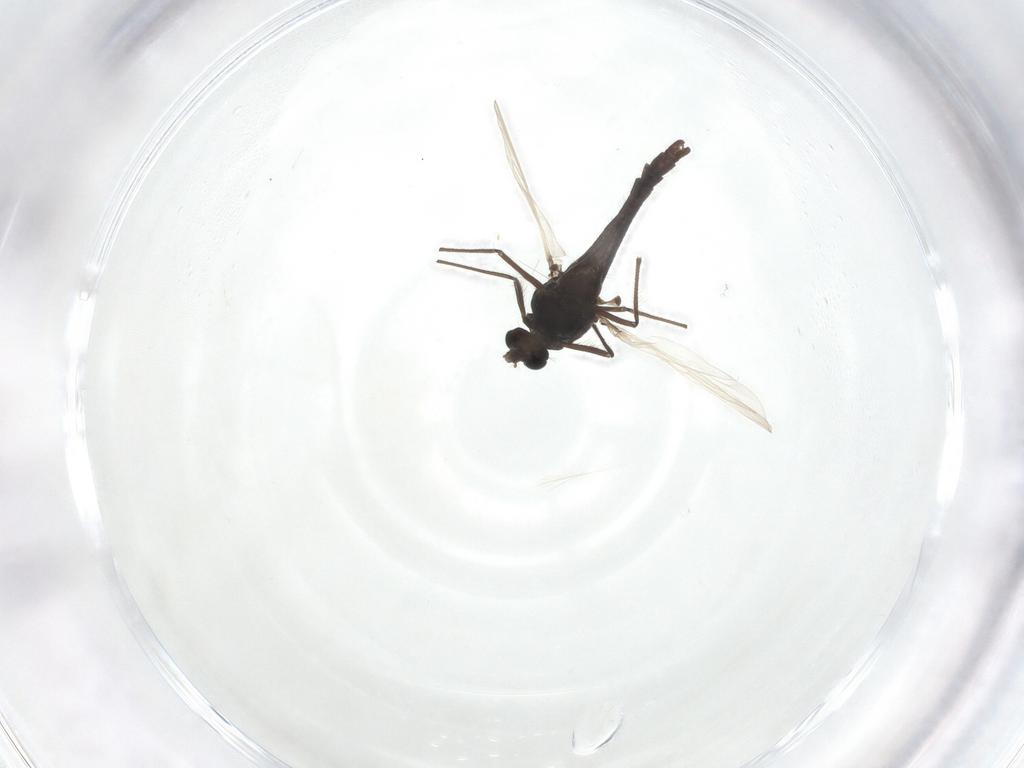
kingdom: Animalia
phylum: Arthropoda
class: Insecta
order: Diptera
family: Chironomidae
